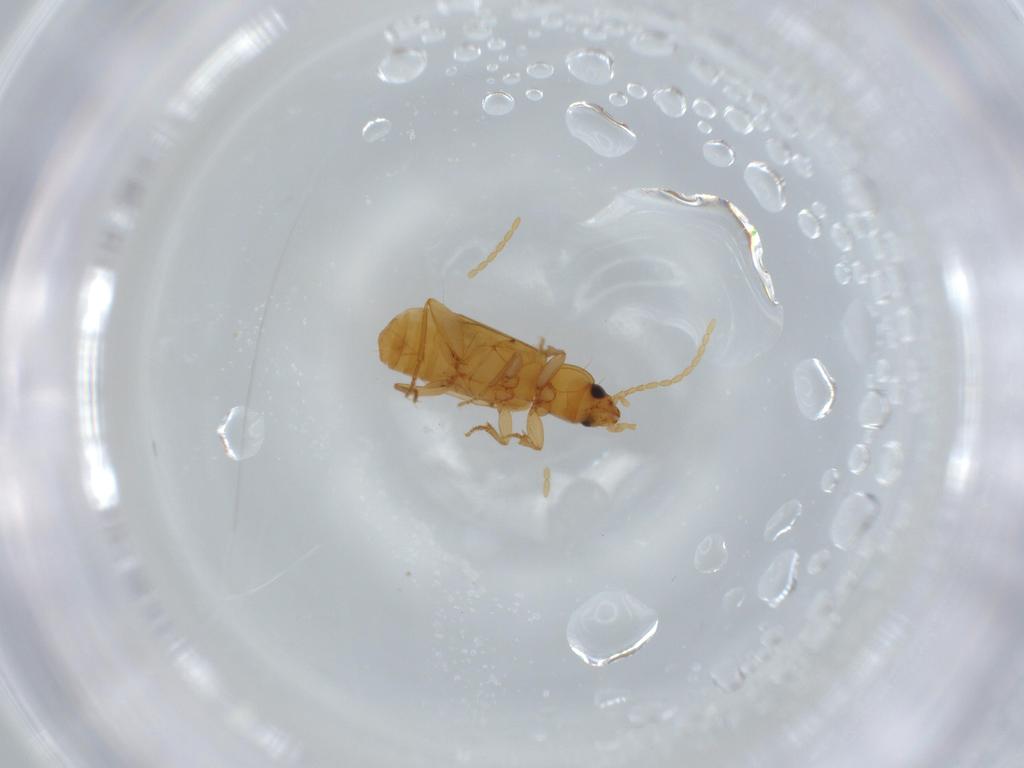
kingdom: Animalia
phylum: Arthropoda
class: Insecta
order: Coleoptera
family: Carabidae
